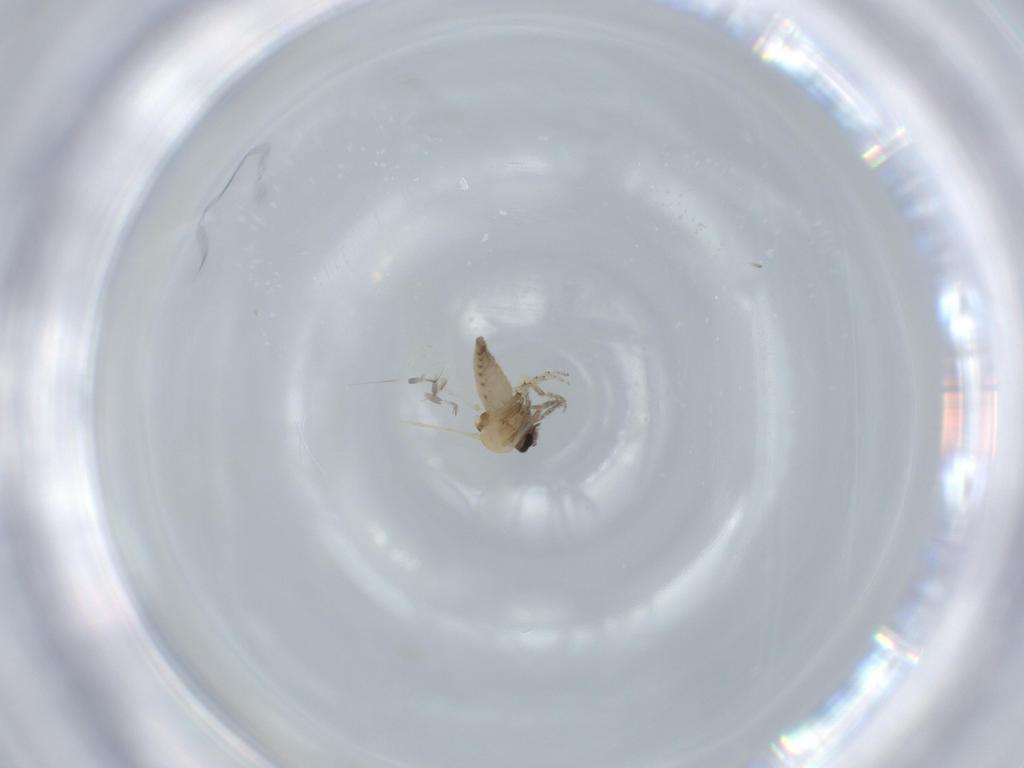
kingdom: Animalia
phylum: Arthropoda
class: Insecta
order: Diptera
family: Ceratopogonidae
